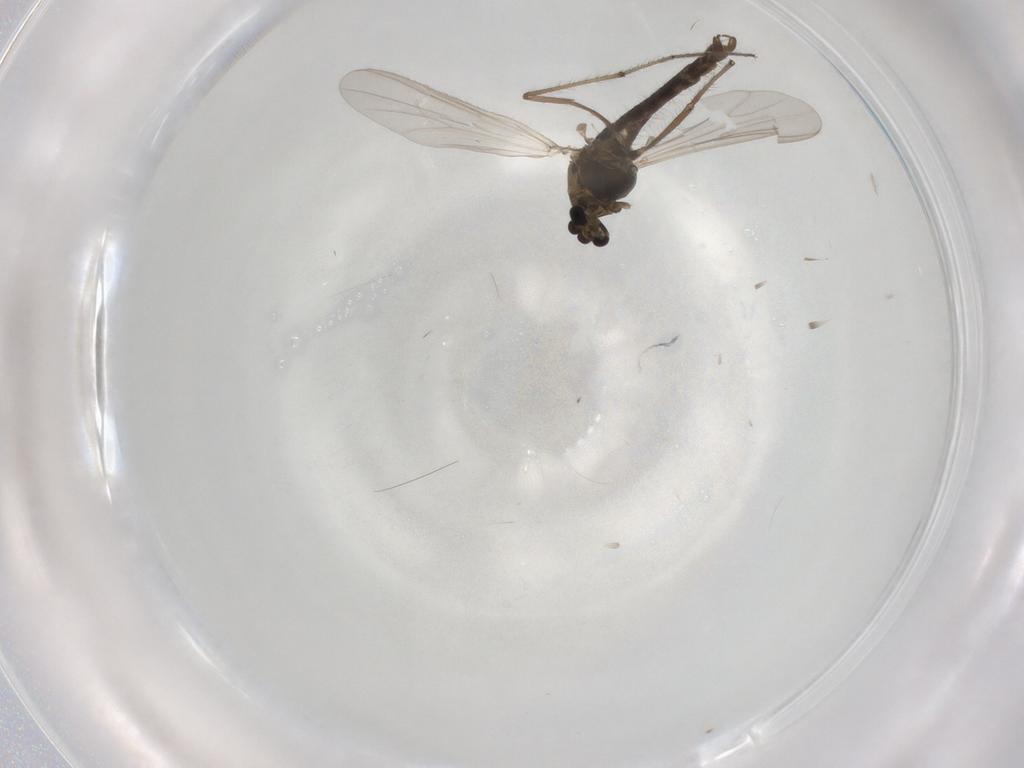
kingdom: Animalia
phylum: Arthropoda
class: Insecta
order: Diptera
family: Chironomidae
